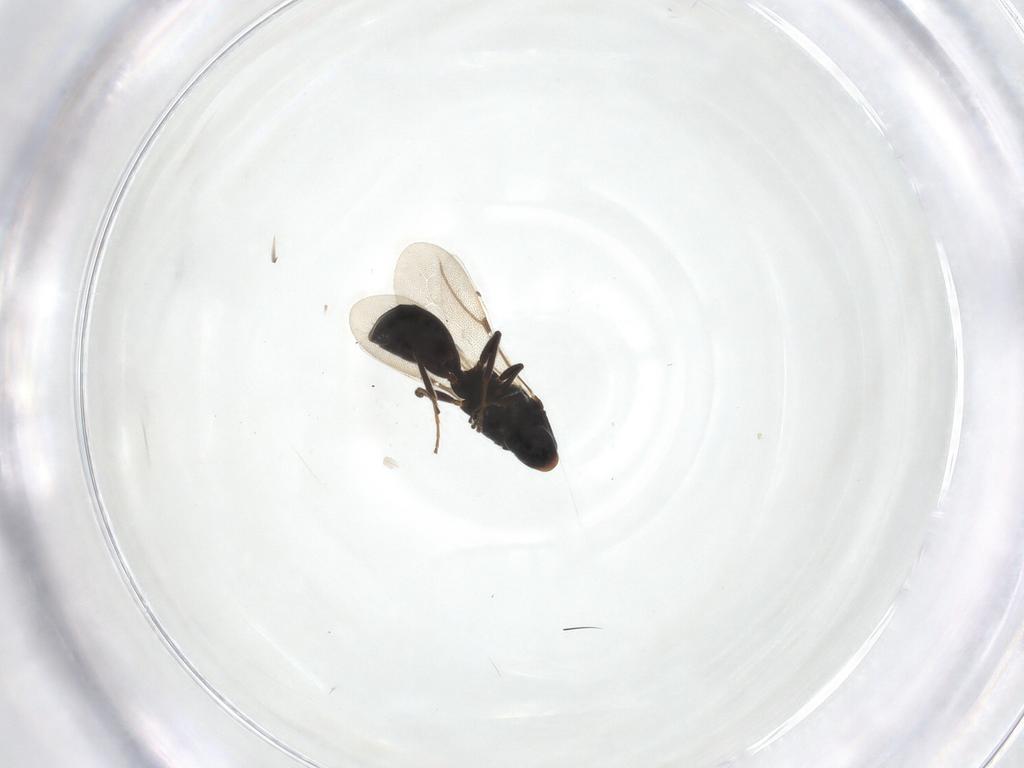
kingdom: Animalia
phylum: Arthropoda
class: Insecta
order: Hymenoptera
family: Bethylidae
